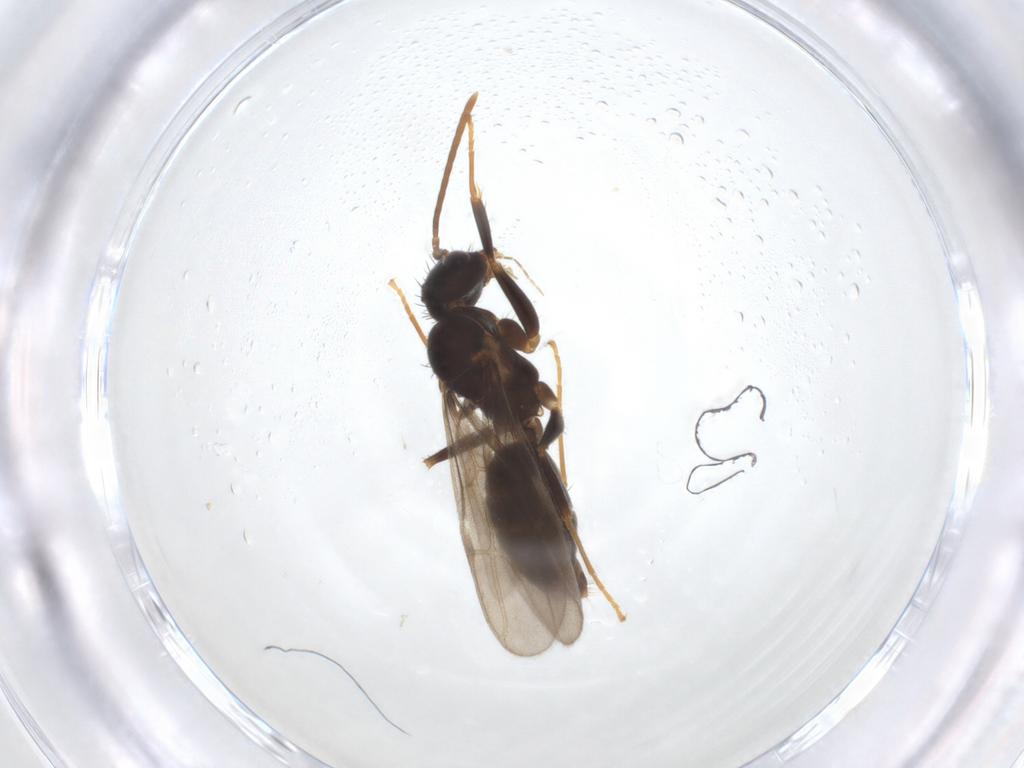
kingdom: Animalia
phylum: Arthropoda
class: Insecta
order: Hymenoptera
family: Formicidae
